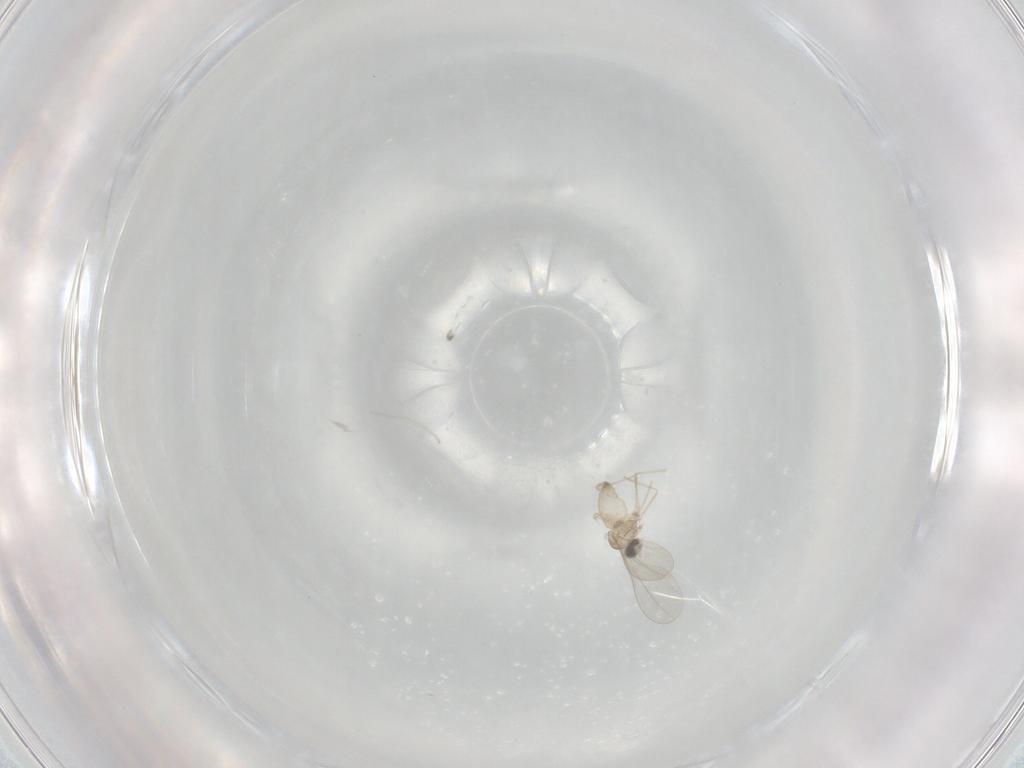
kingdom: Animalia
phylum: Arthropoda
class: Insecta
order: Diptera
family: Cecidomyiidae
